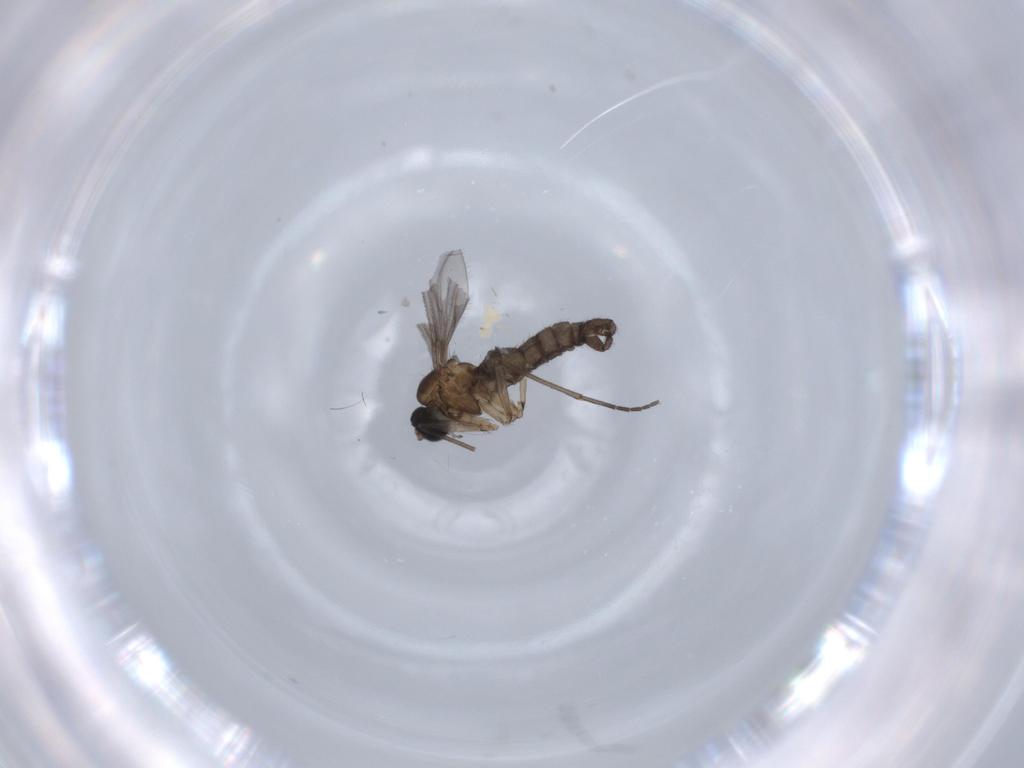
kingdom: Animalia
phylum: Arthropoda
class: Insecta
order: Diptera
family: Sciaridae
